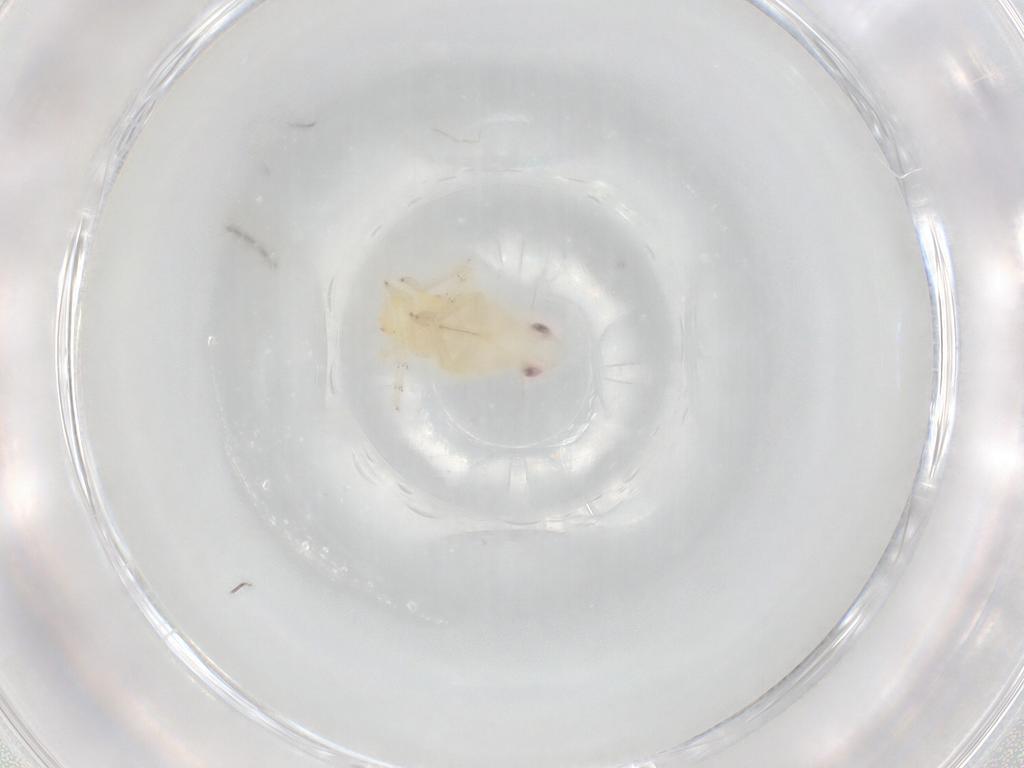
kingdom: Animalia
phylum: Arthropoda
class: Insecta
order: Hemiptera
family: Tropiduchidae
